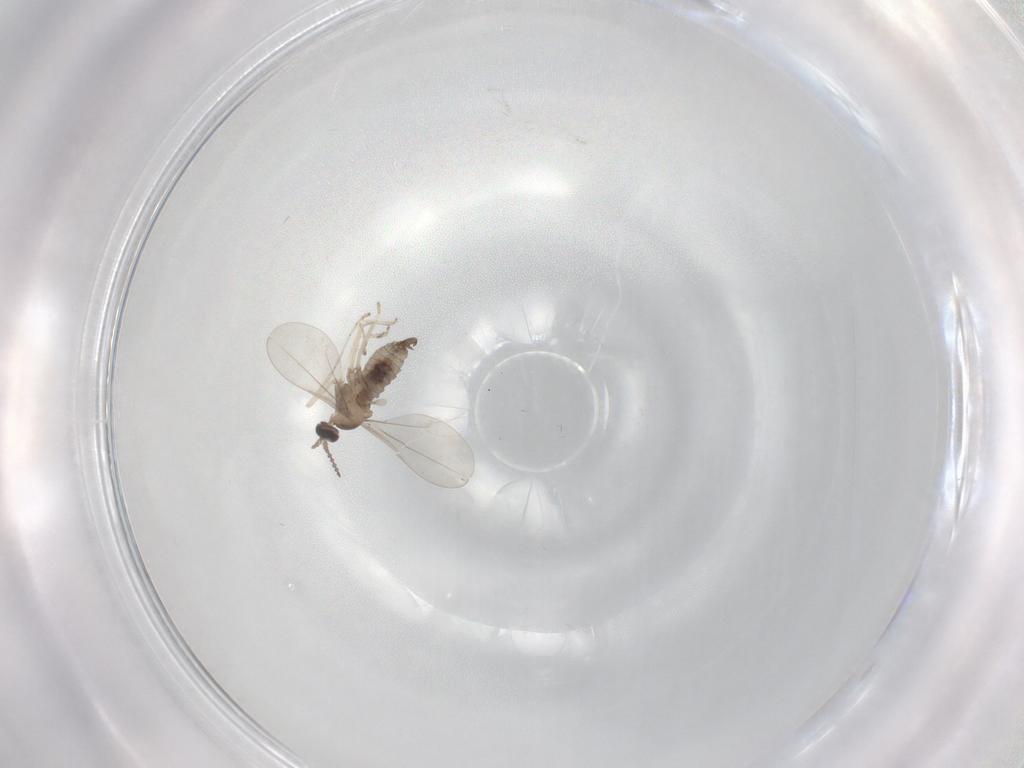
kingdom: Animalia
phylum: Arthropoda
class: Insecta
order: Diptera
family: Cecidomyiidae
